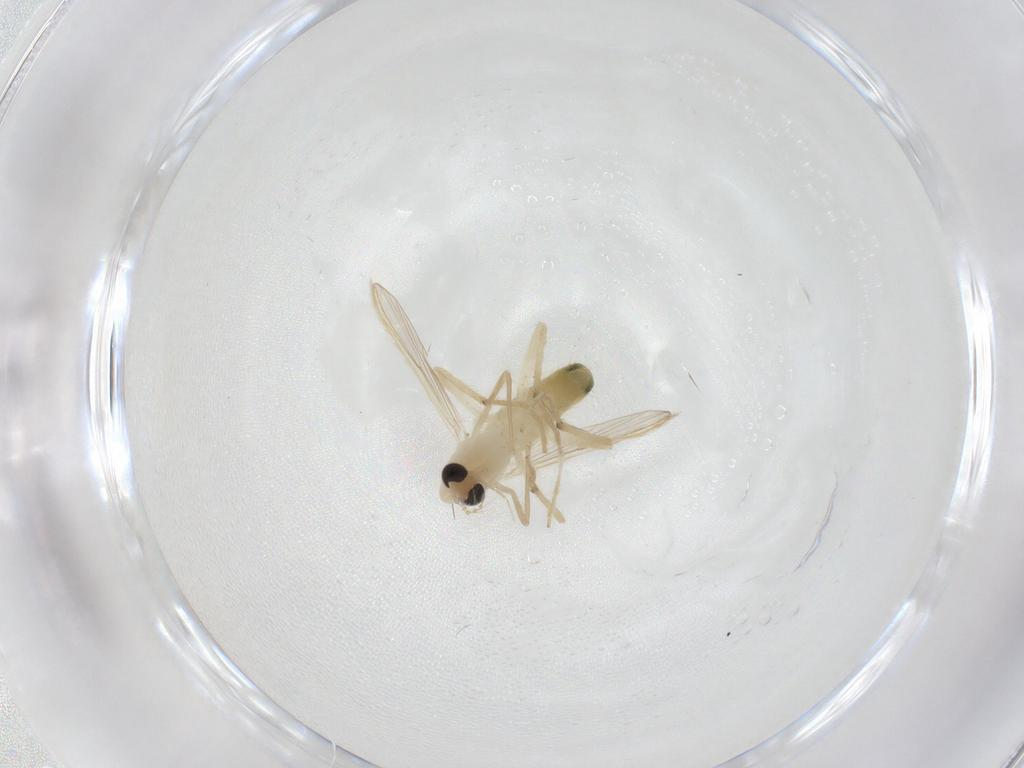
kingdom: Animalia
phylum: Arthropoda
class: Insecta
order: Diptera
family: Chironomidae
